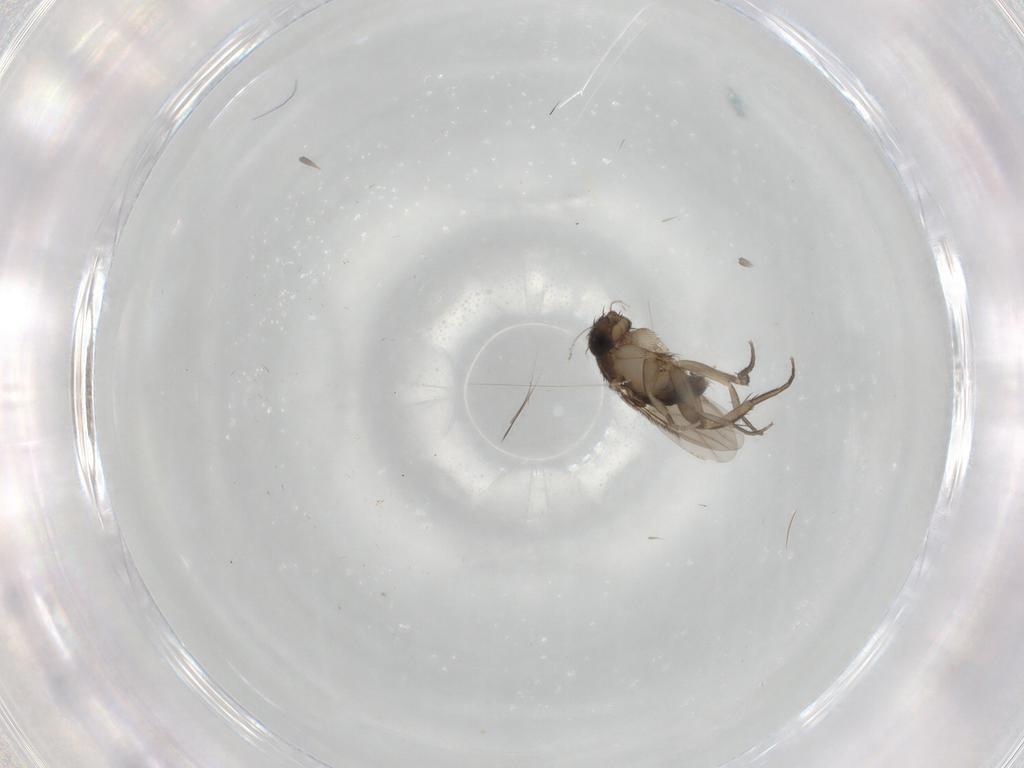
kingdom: Animalia
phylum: Arthropoda
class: Insecta
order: Diptera
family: Phoridae
